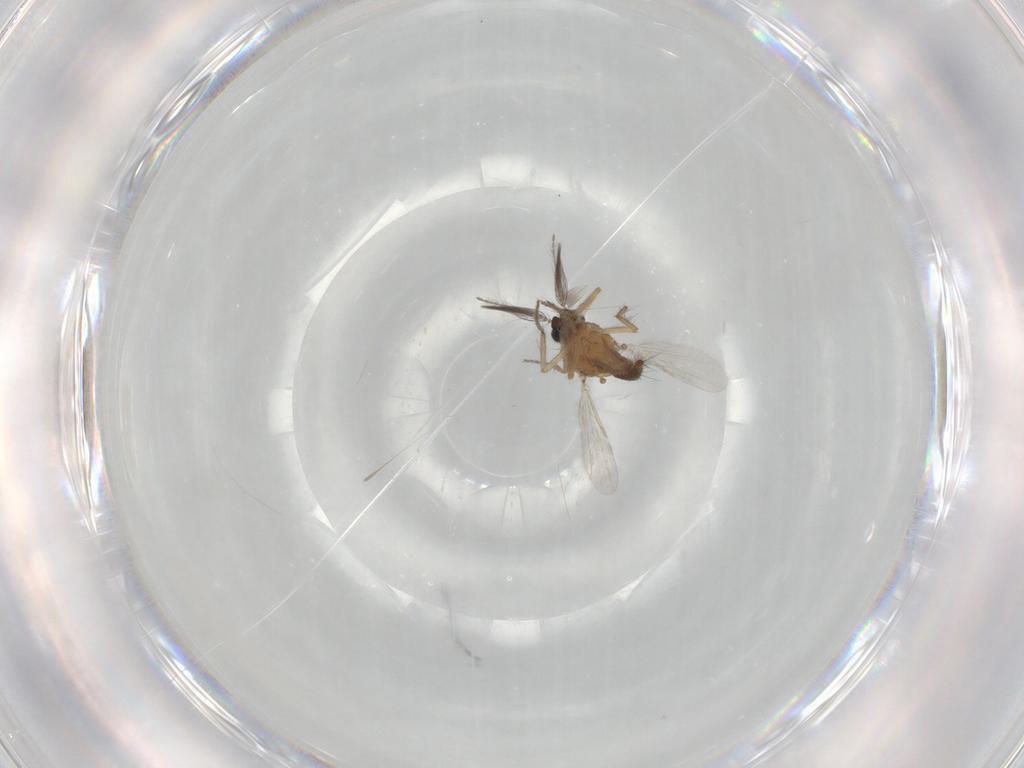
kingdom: Animalia
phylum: Arthropoda
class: Insecta
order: Diptera
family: Ceratopogonidae
